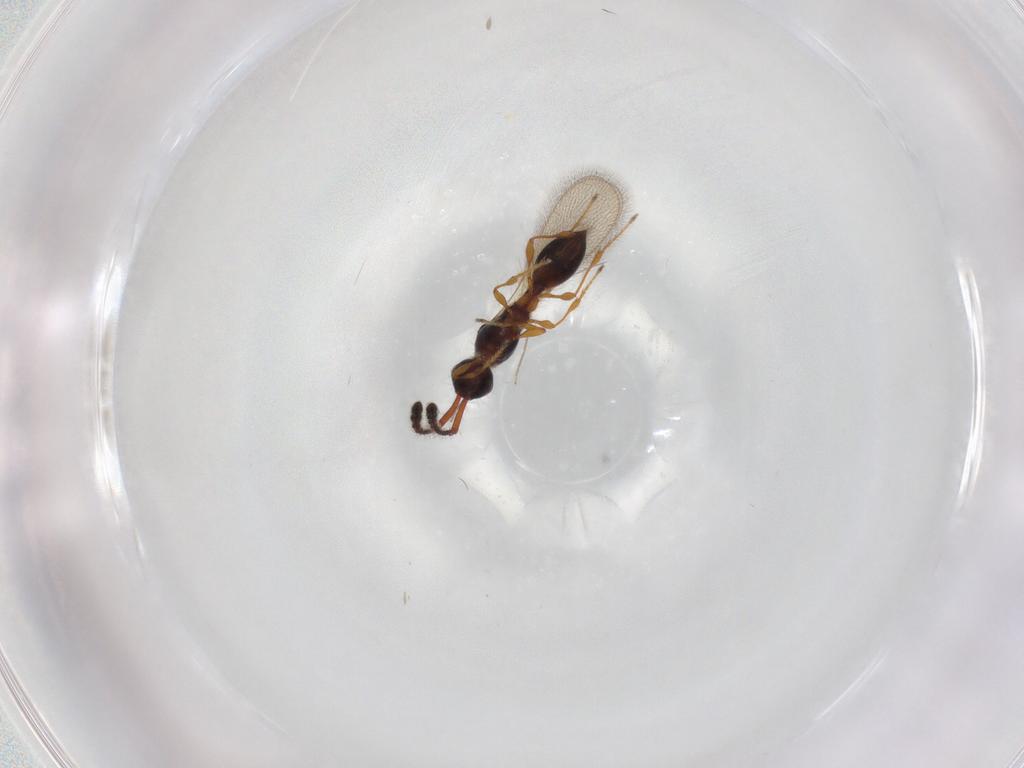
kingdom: Animalia
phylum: Arthropoda
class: Insecta
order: Hymenoptera
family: Diapriidae
